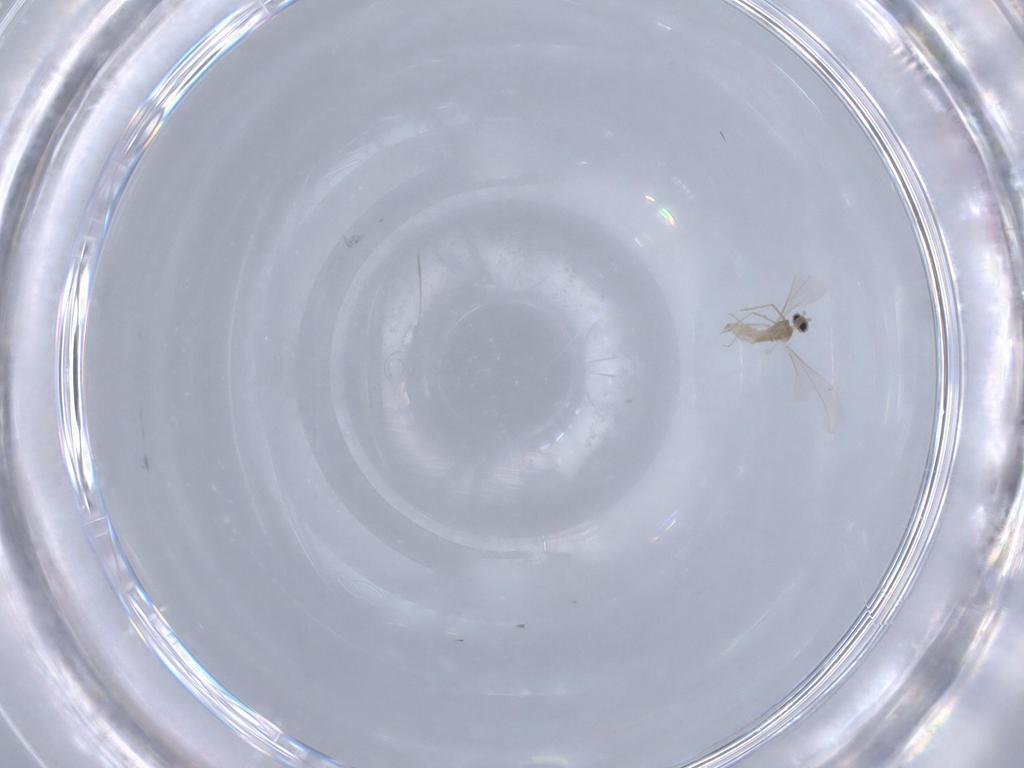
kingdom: Animalia
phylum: Arthropoda
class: Insecta
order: Diptera
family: Cecidomyiidae
